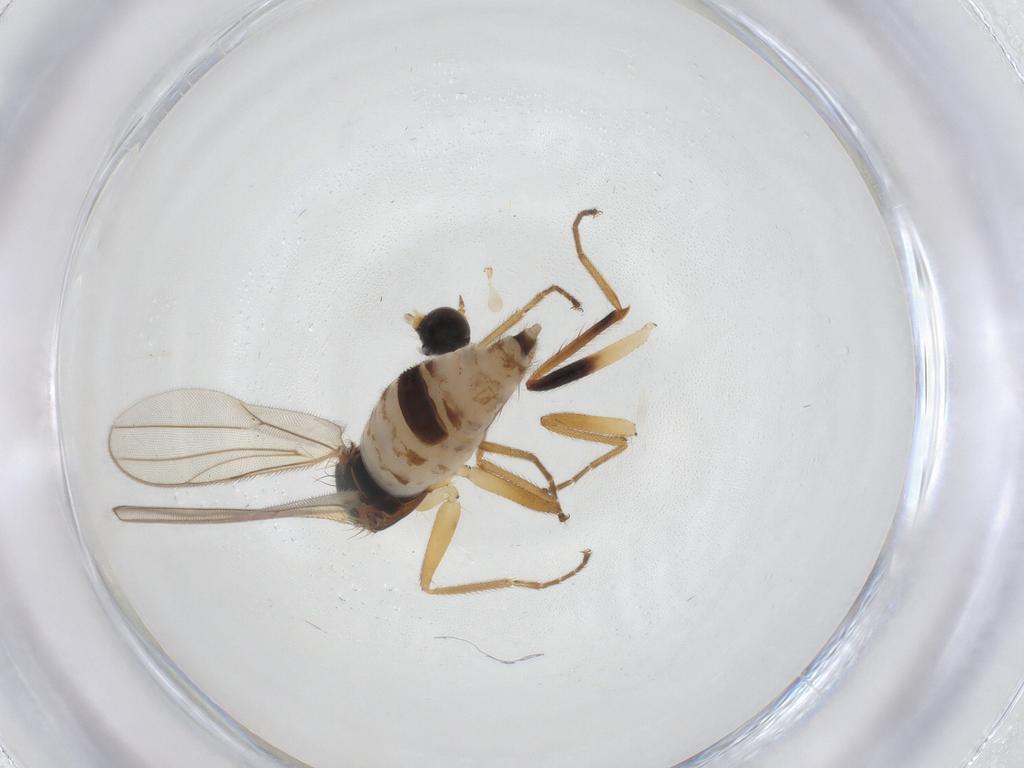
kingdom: Animalia
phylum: Arthropoda
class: Insecta
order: Diptera
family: Hybotidae
